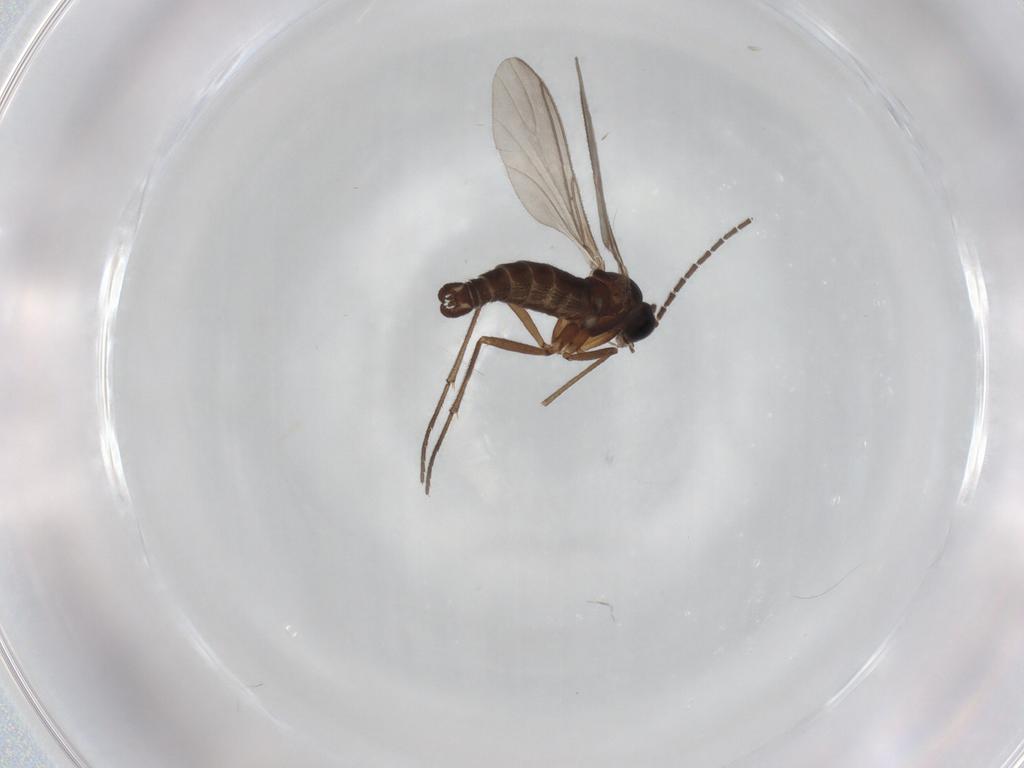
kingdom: Animalia
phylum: Arthropoda
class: Insecta
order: Diptera
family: Sciaridae
